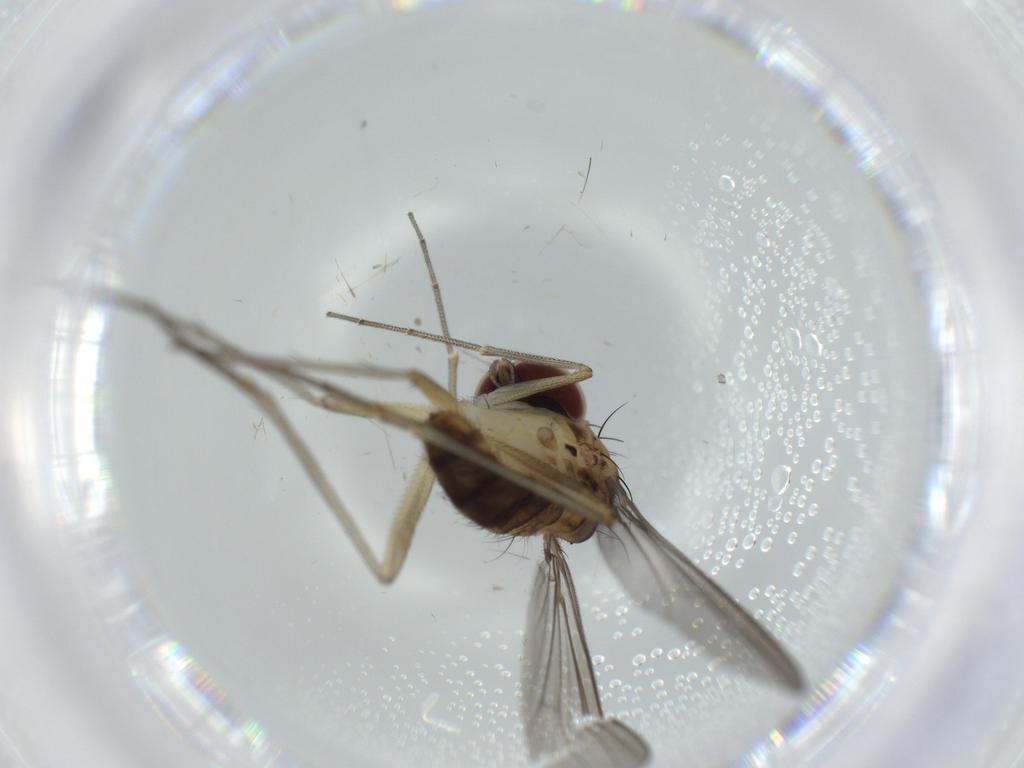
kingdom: Animalia
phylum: Arthropoda
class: Insecta
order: Diptera
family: Dolichopodidae
